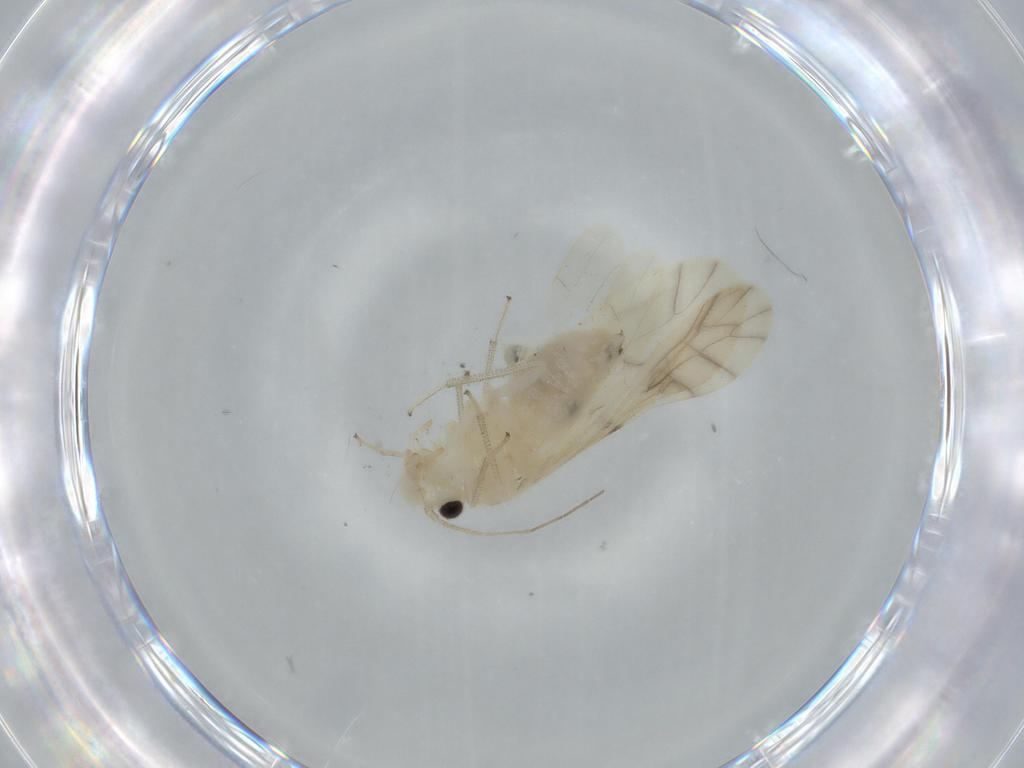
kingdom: Animalia
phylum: Arthropoda
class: Insecta
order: Psocodea
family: Caeciliusidae
